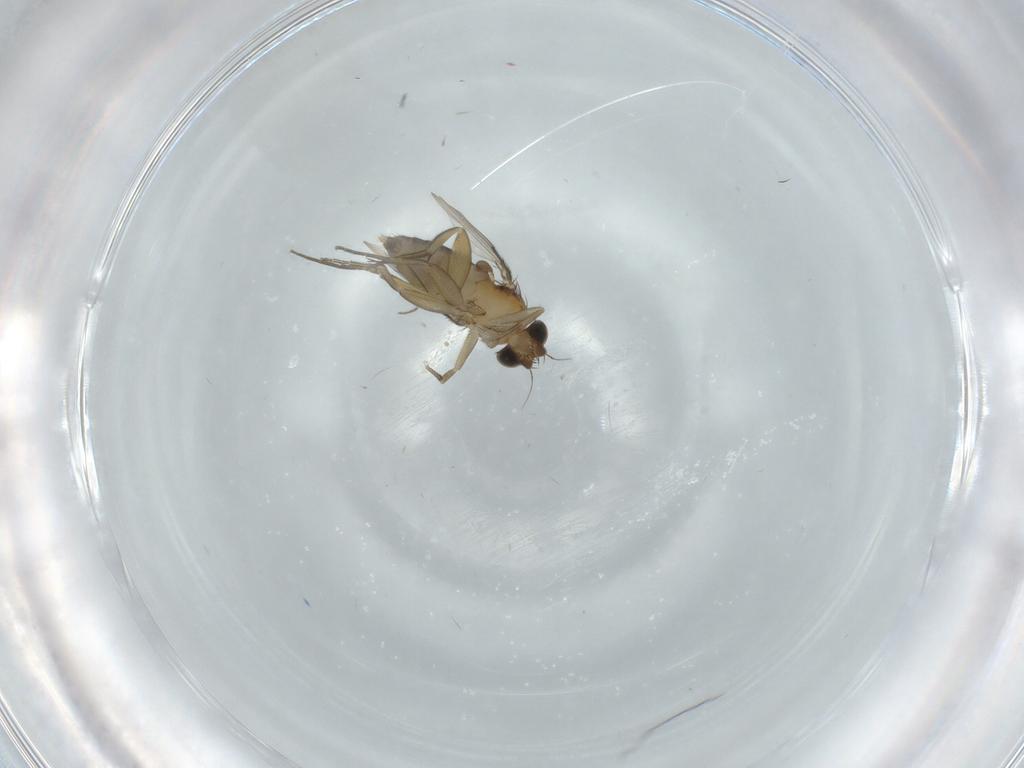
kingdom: Animalia
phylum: Arthropoda
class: Insecta
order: Diptera
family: Phoridae
